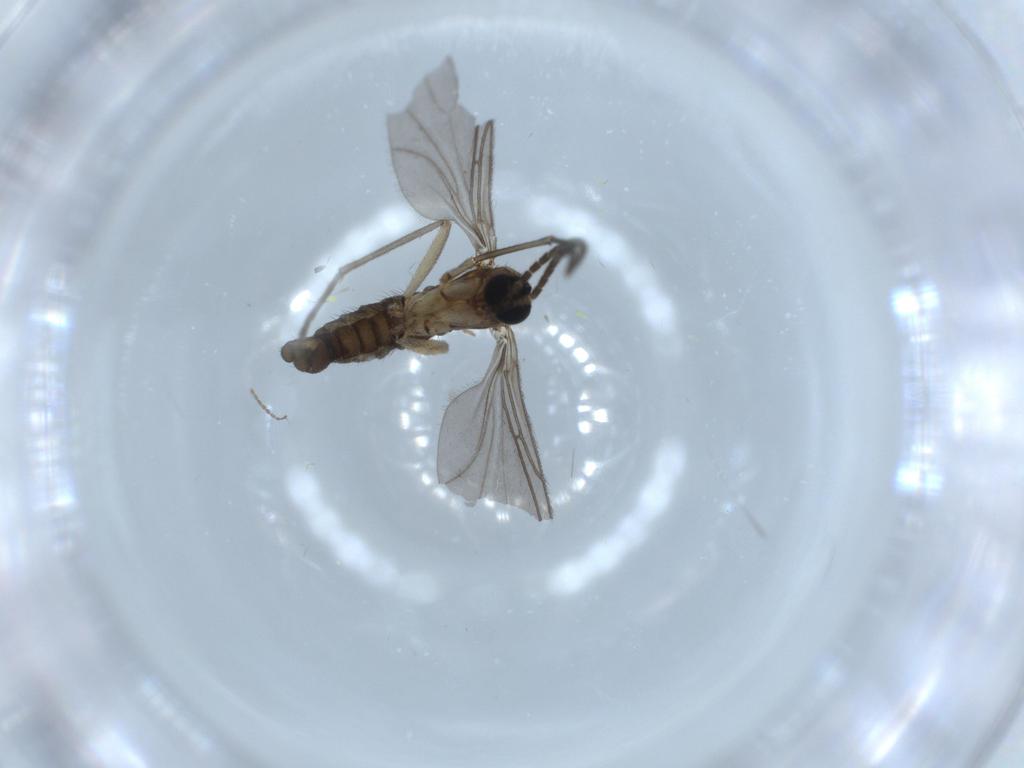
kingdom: Animalia
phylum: Arthropoda
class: Insecta
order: Diptera
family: Sciaridae
